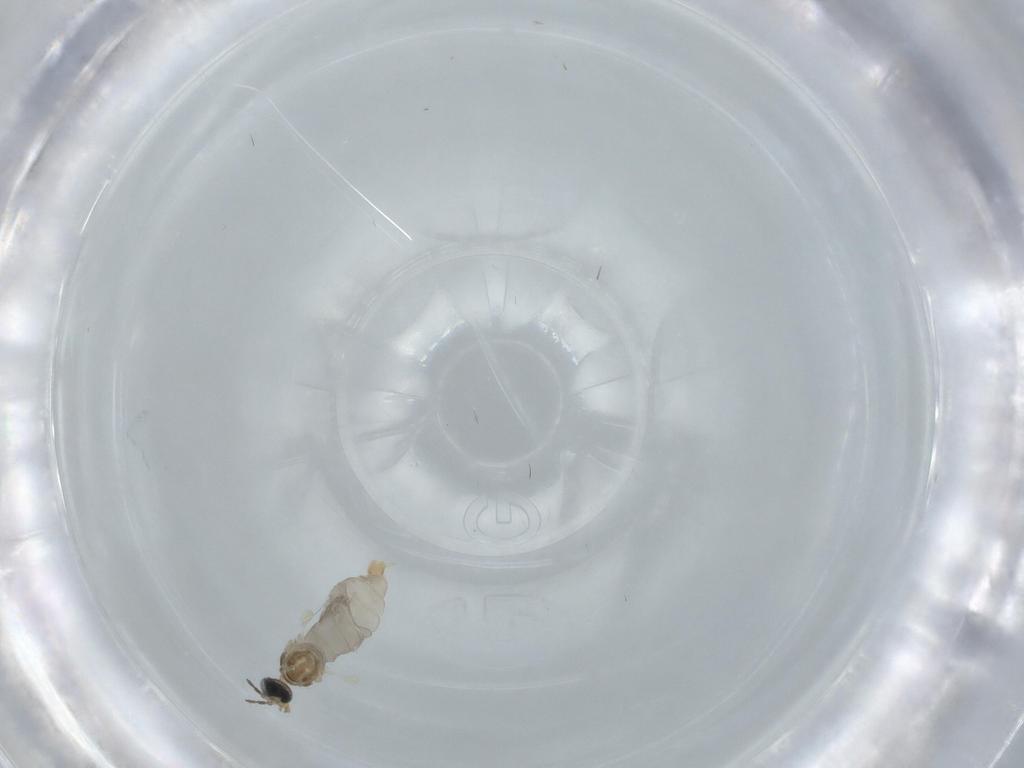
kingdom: Animalia
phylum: Arthropoda
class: Insecta
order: Diptera
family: Cecidomyiidae
